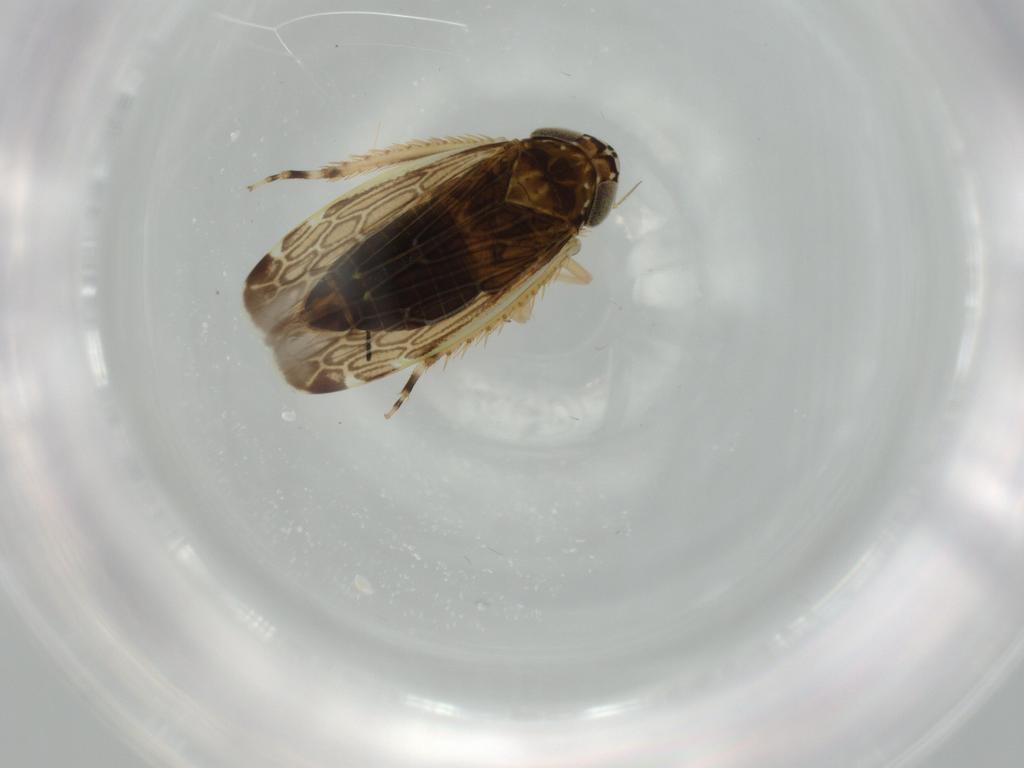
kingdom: Animalia
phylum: Arthropoda
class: Insecta
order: Hemiptera
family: Cicadellidae
